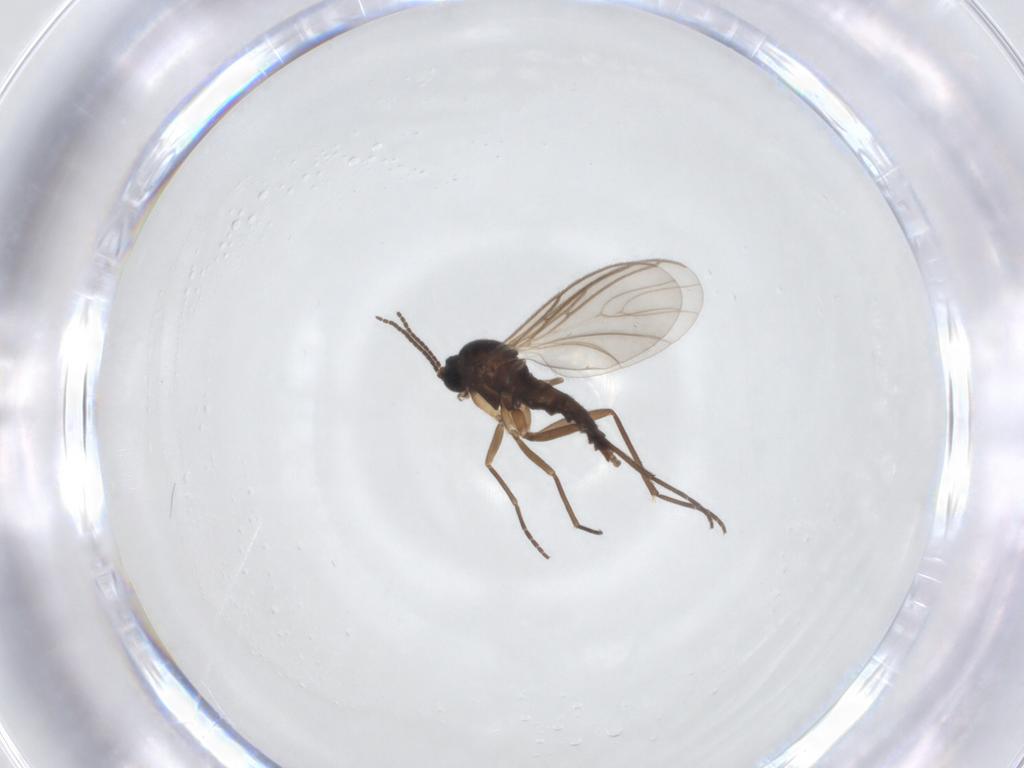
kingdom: Animalia
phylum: Arthropoda
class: Insecta
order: Diptera
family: Sciaridae
